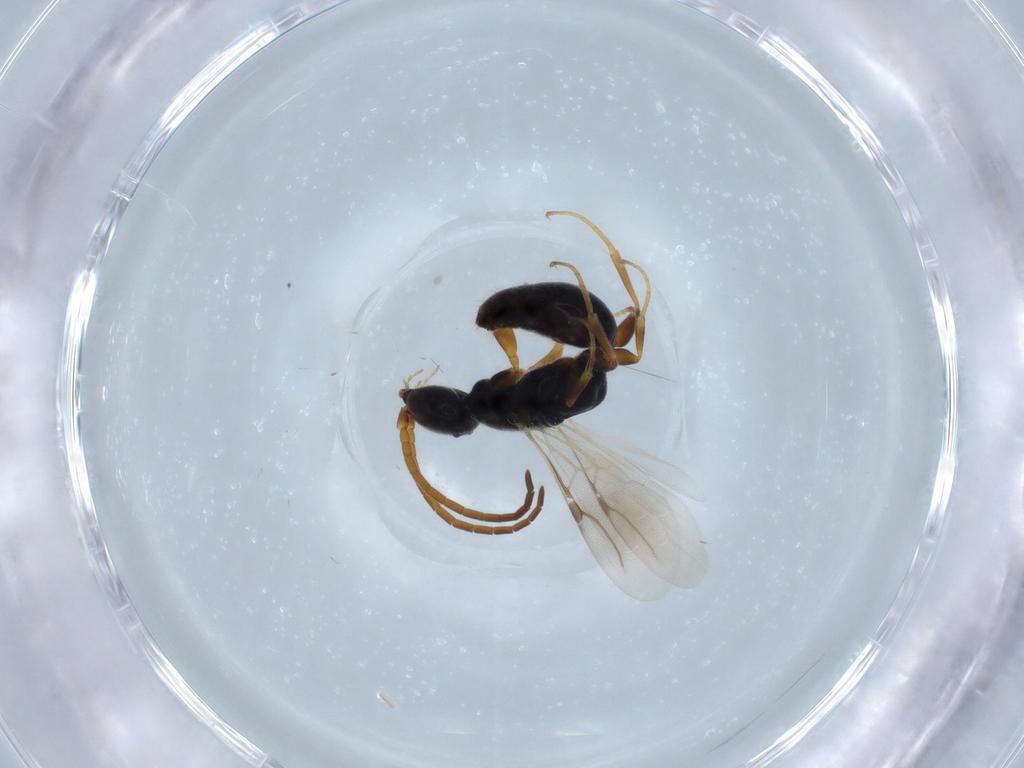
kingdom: Animalia
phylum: Arthropoda
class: Insecta
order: Hymenoptera
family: Bethylidae
